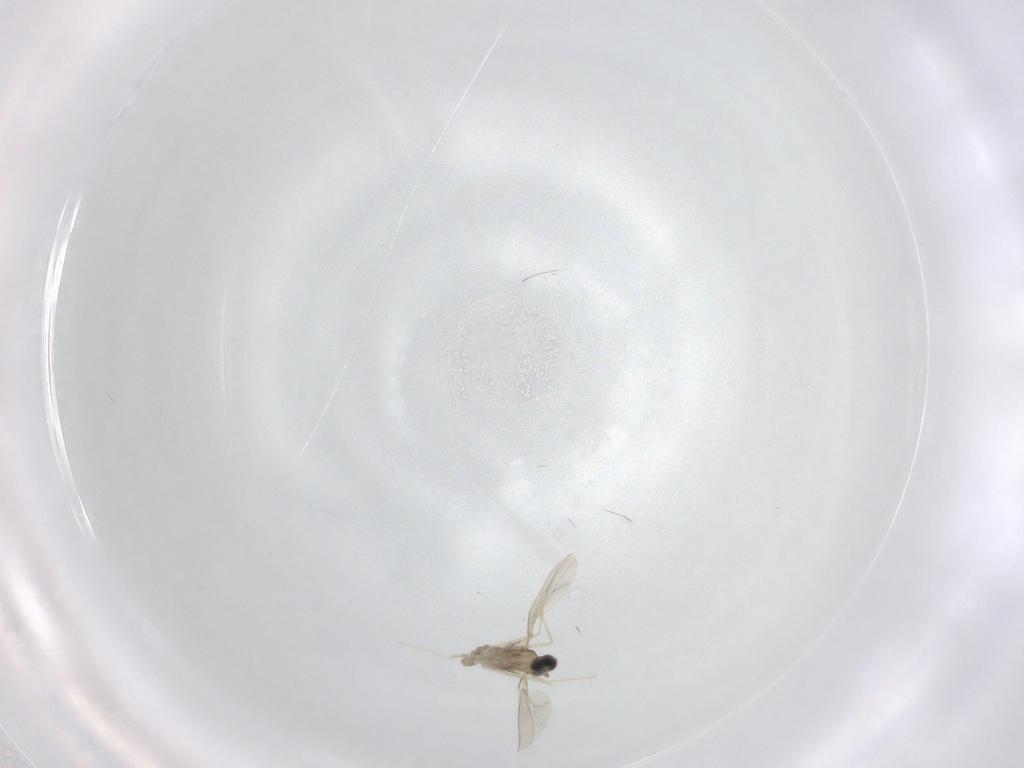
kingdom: Animalia
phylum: Arthropoda
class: Insecta
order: Diptera
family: Cecidomyiidae
